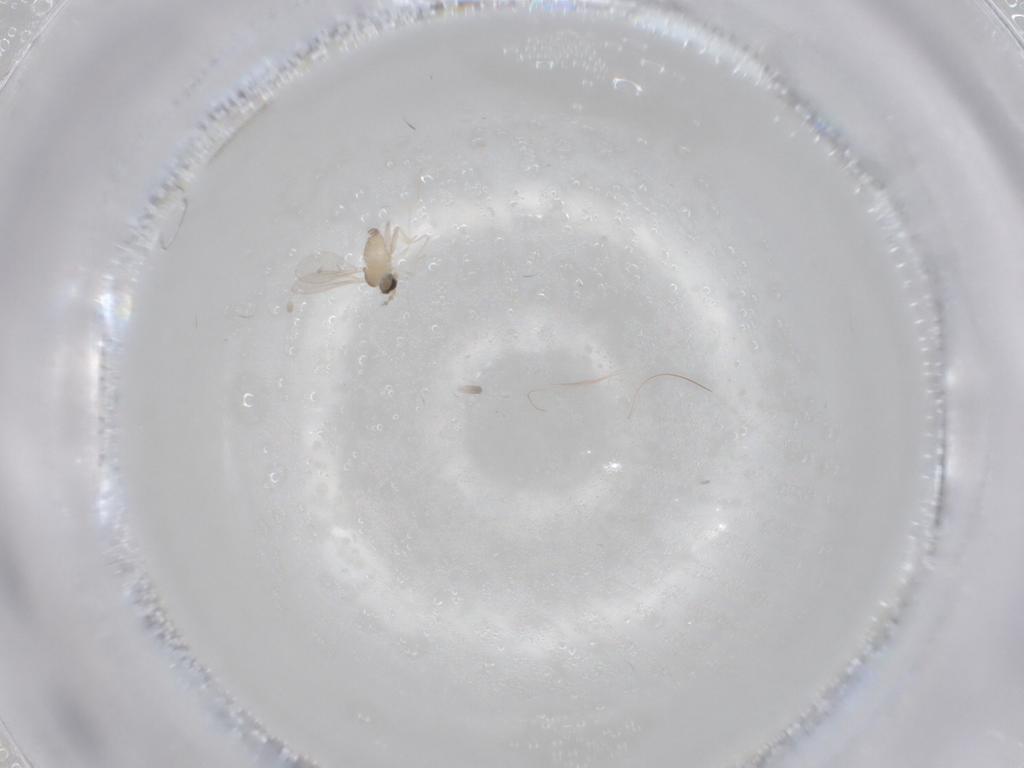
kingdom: Animalia
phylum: Arthropoda
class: Insecta
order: Diptera
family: Cecidomyiidae
